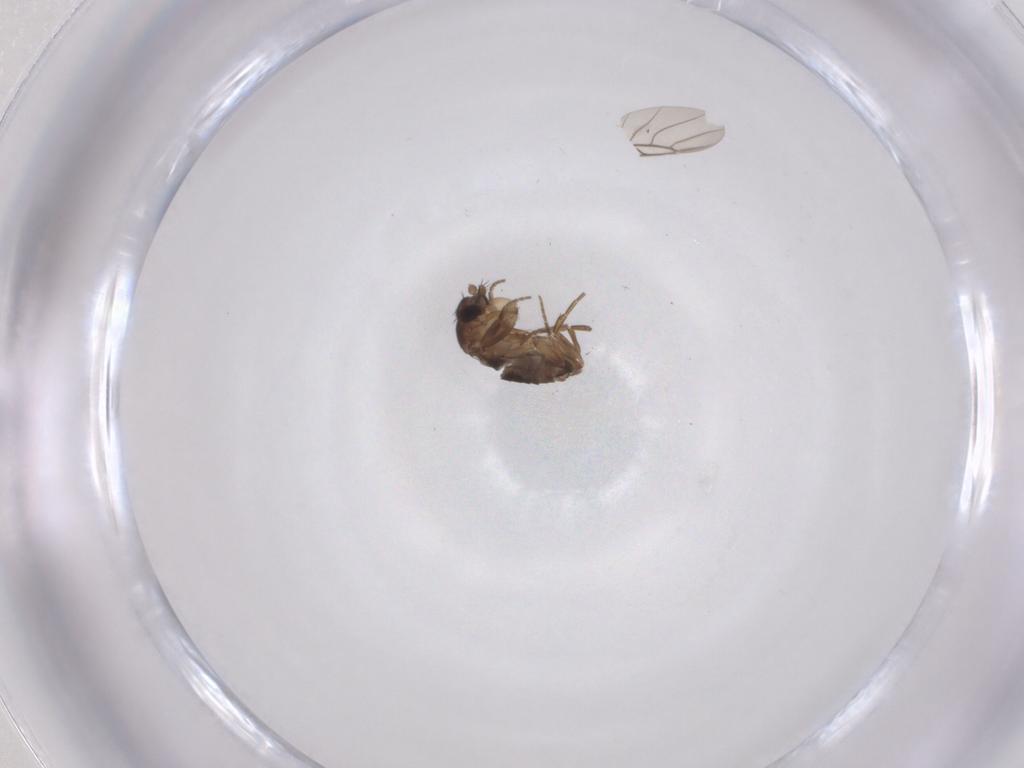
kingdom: Animalia
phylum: Arthropoda
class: Insecta
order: Diptera
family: Phoridae
